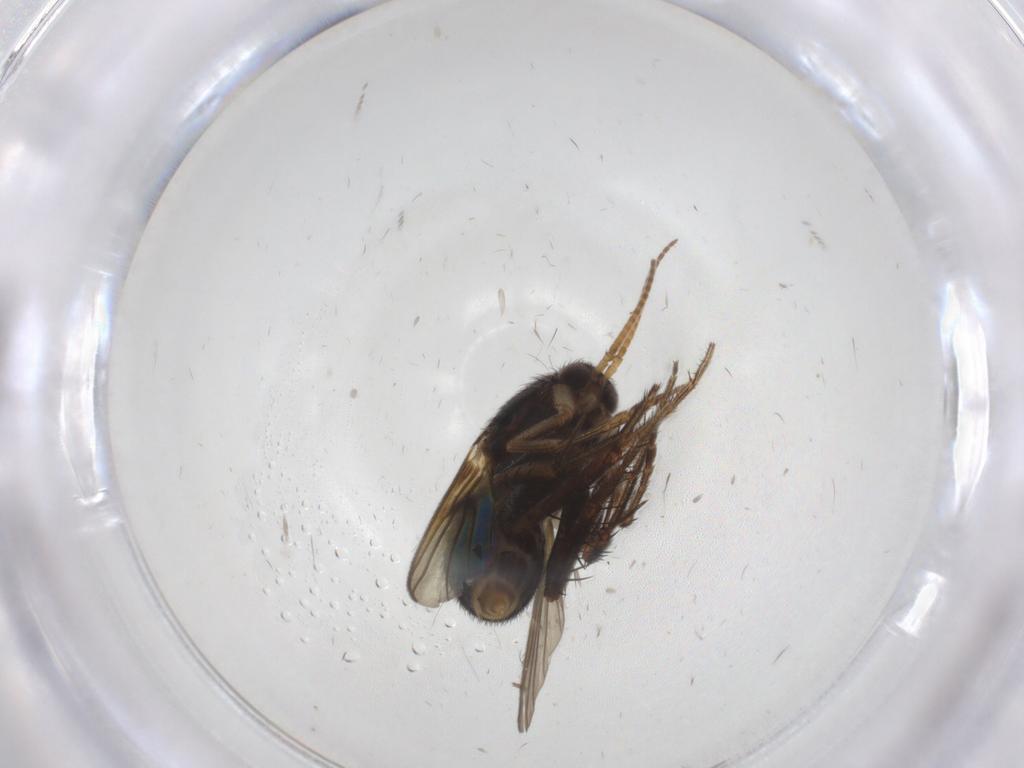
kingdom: Animalia
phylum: Arthropoda
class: Insecta
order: Diptera
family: Mycetophilidae
